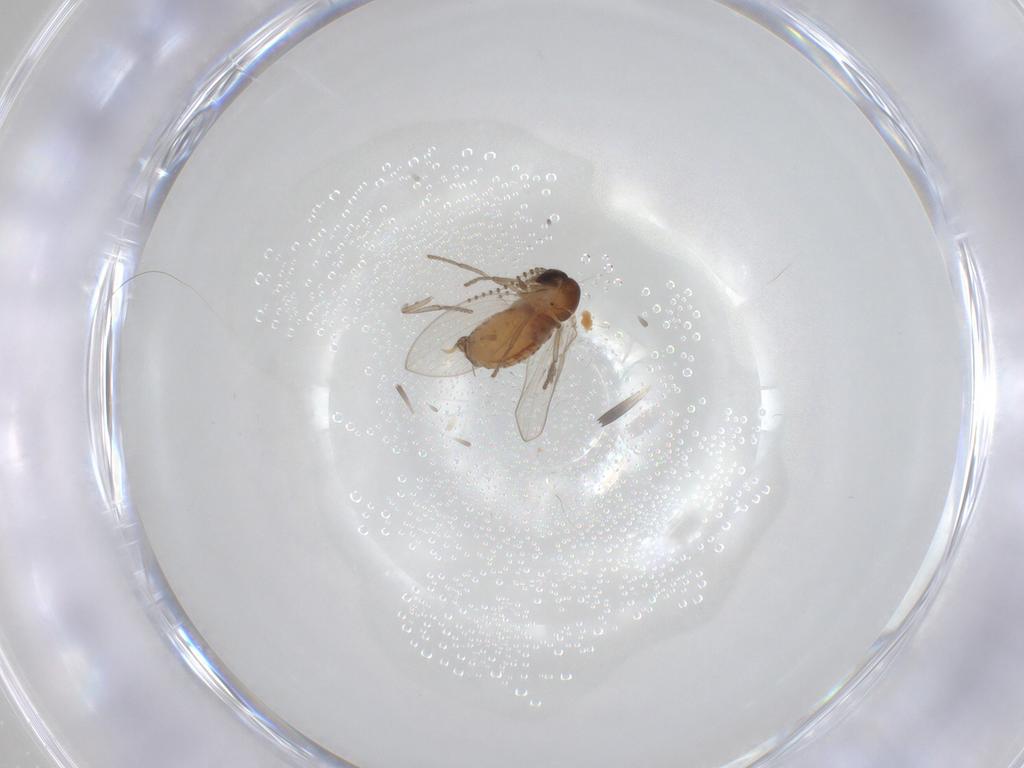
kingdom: Animalia
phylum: Arthropoda
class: Insecta
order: Diptera
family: Psychodidae
